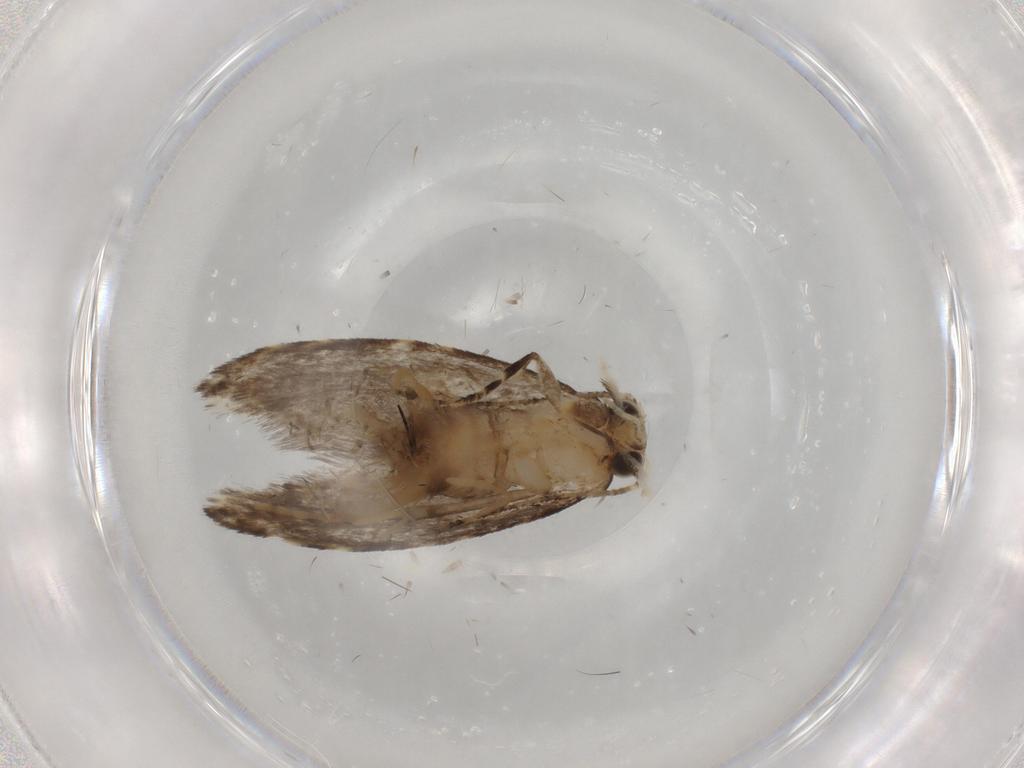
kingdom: Animalia
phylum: Arthropoda
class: Insecta
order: Lepidoptera
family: Tineidae
